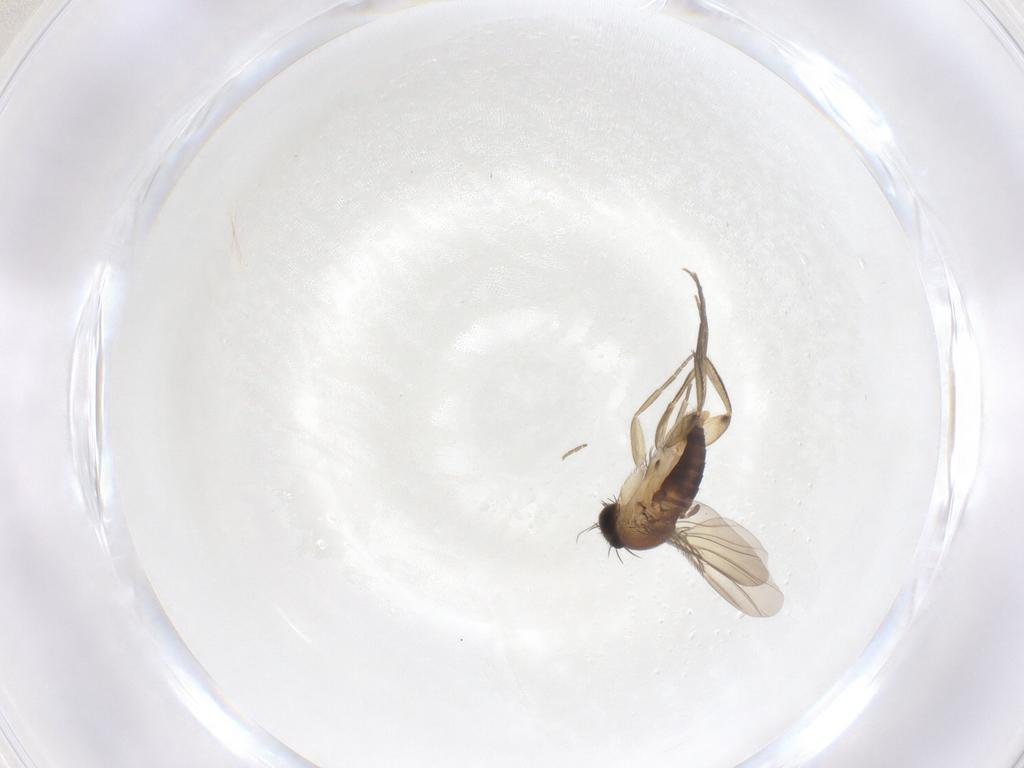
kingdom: Animalia
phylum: Arthropoda
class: Insecta
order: Diptera
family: Phoridae
